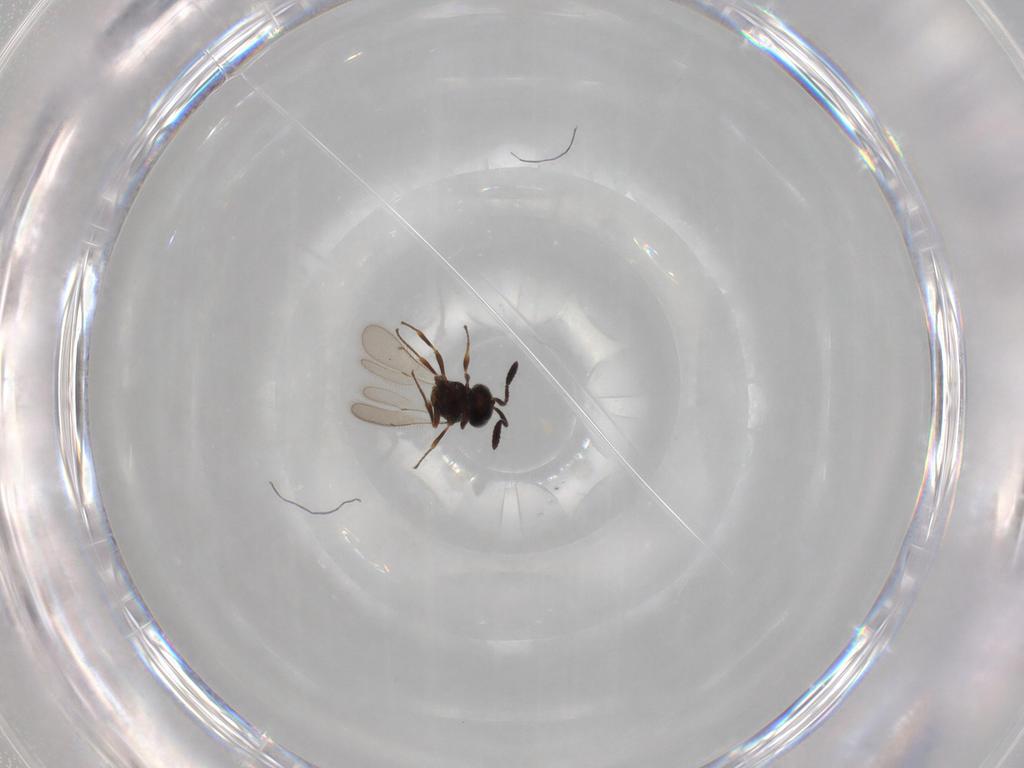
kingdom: Animalia
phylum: Arthropoda
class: Insecta
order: Hymenoptera
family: Scelionidae
